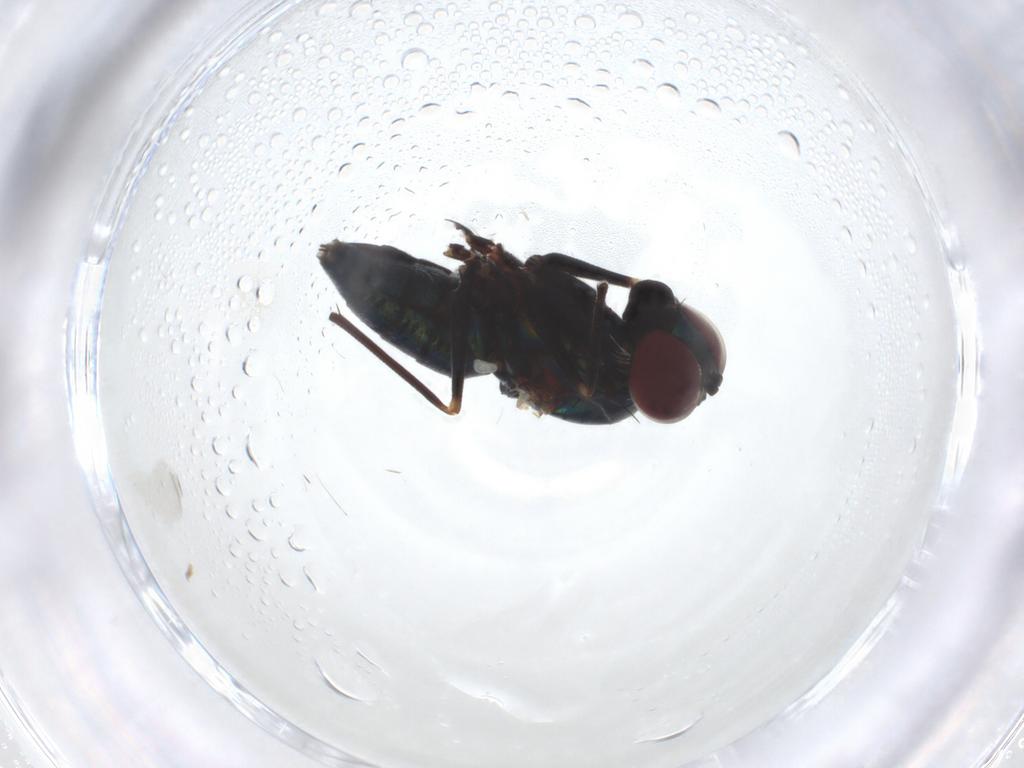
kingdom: Animalia
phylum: Arthropoda
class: Insecta
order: Diptera
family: Dolichopodidae
